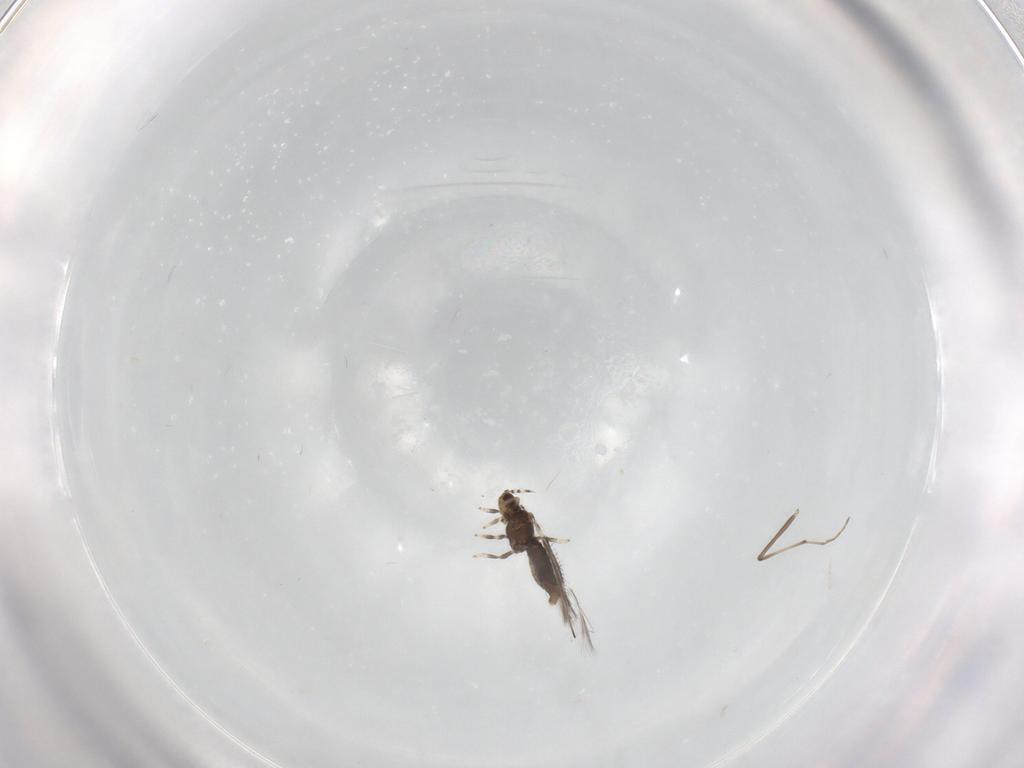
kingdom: Animalia
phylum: Arthropoda
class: Insecta
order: Thysanoptera
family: Thripidae
